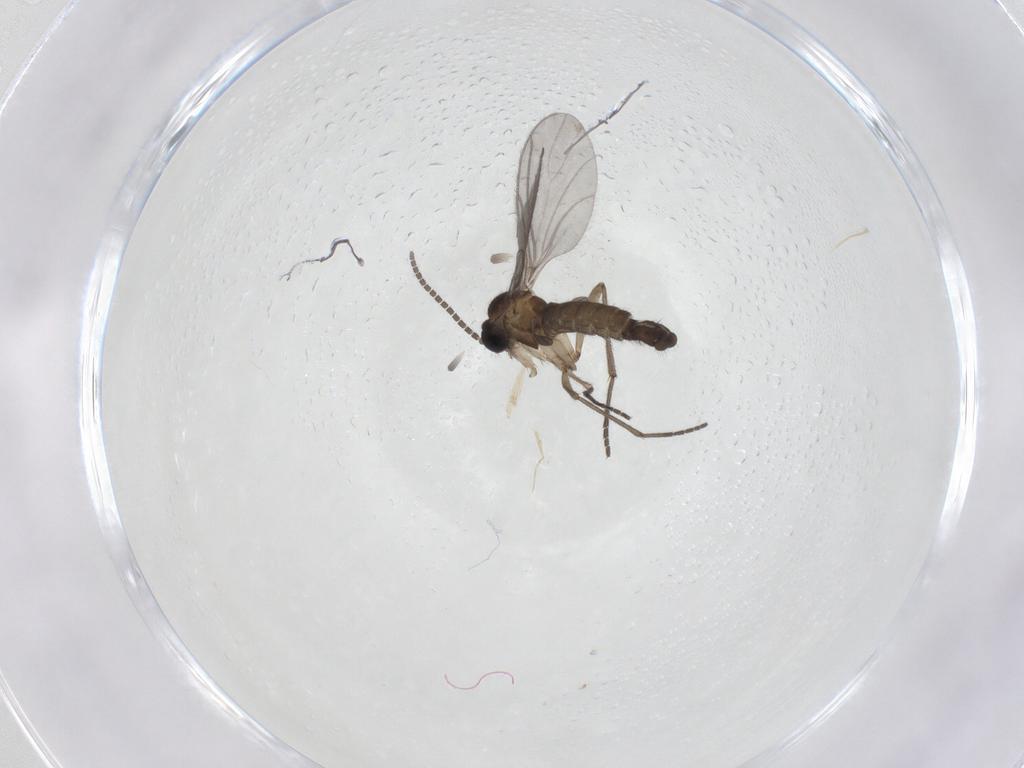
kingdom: Animalia
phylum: Arthropoda
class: Insecta
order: Diptera
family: Sciaridae
